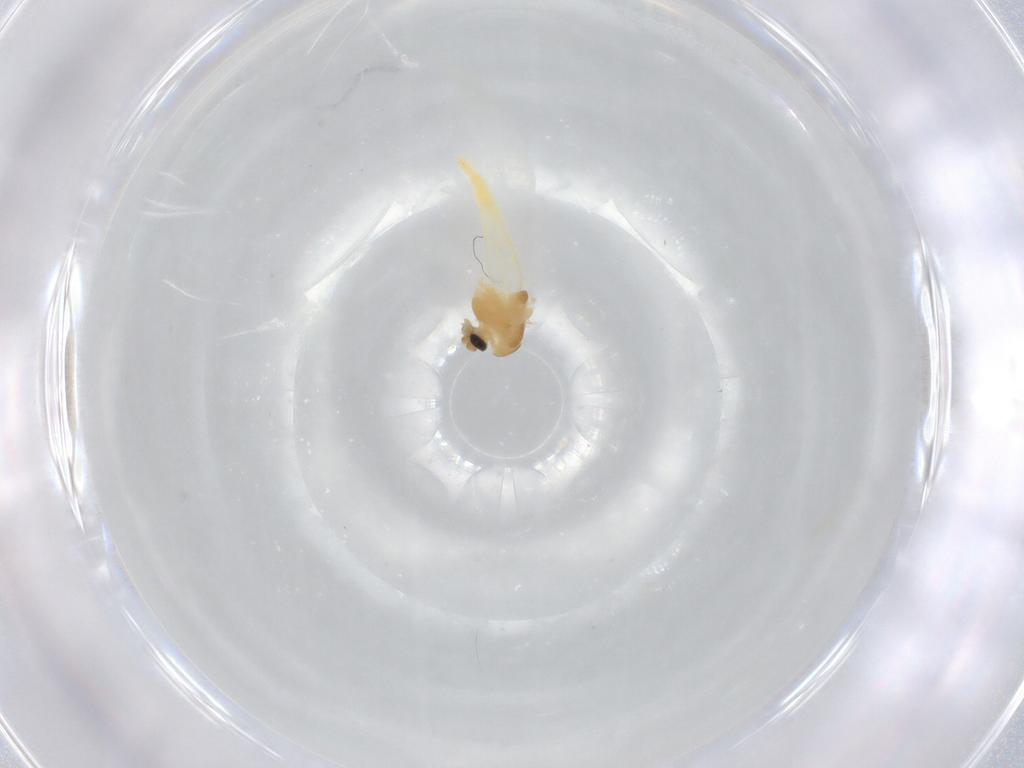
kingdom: Animalia
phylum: Arthropoda
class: Insecta
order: Diptera
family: Chironomidae
